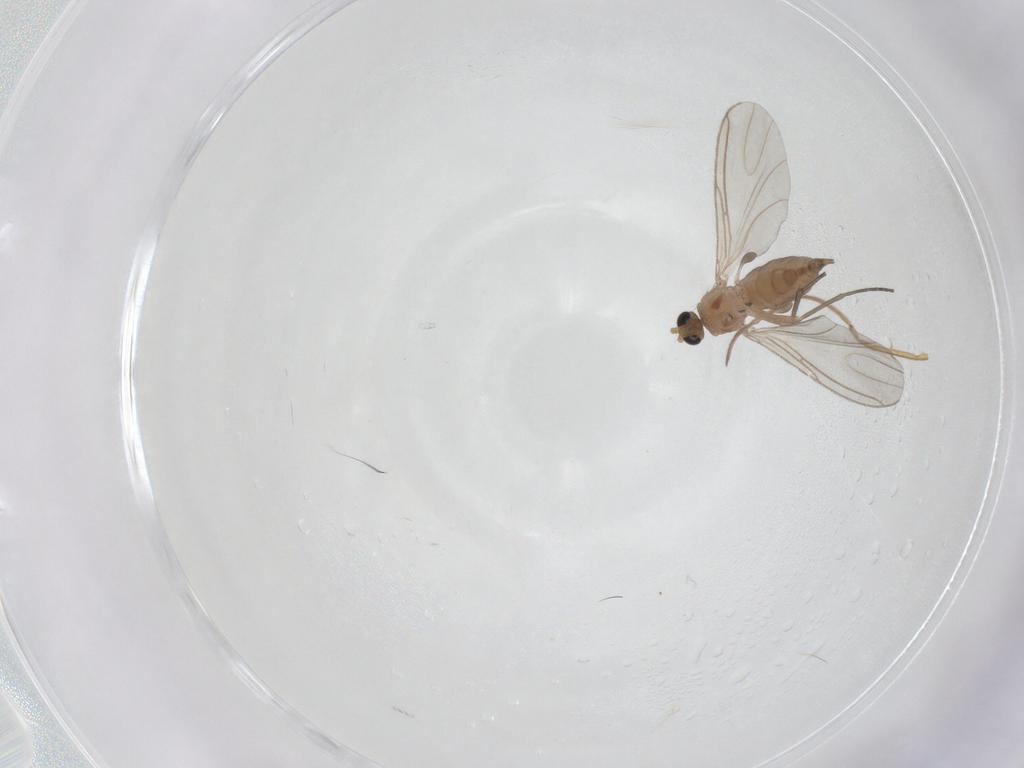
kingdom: Animalia
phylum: Arthropoda
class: Insecta
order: Diptera
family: Sciaridae
